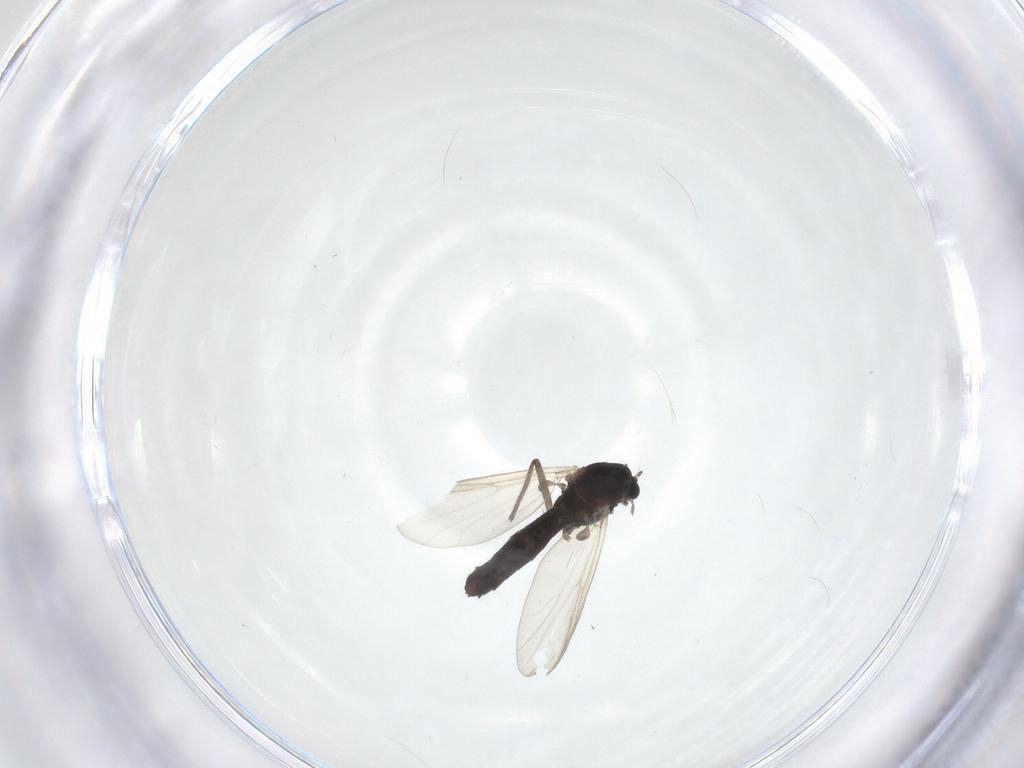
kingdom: Animalia
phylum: Arthropoda
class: Insecta
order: Diptera
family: Chironomidae
